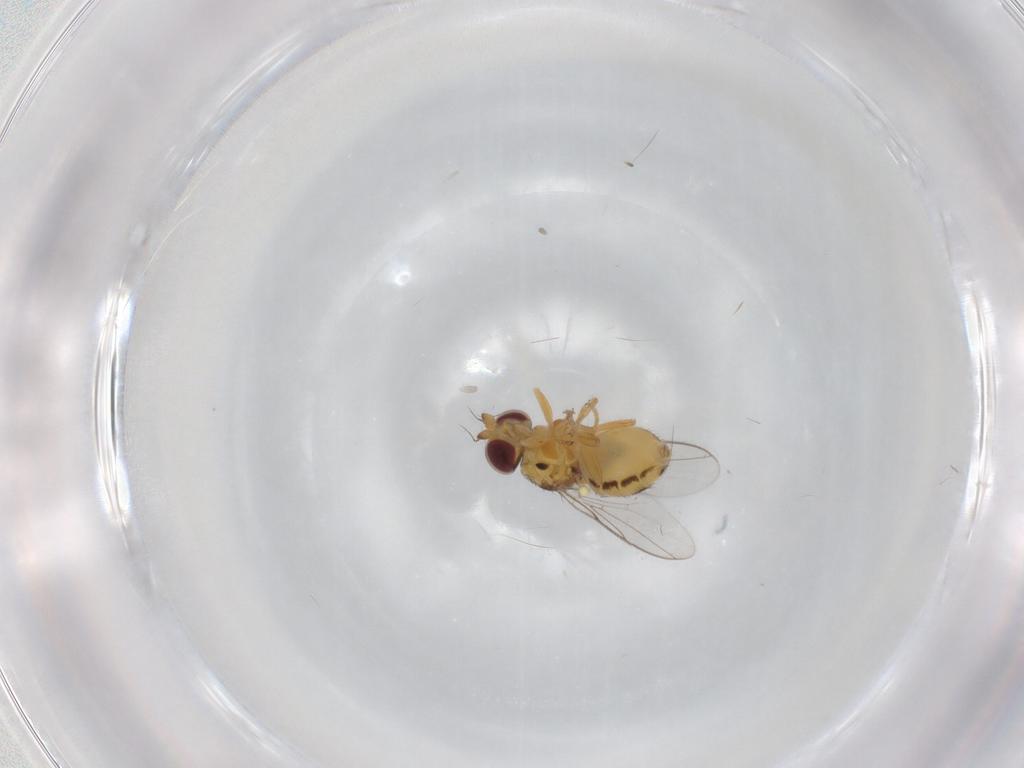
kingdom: Animalia
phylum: Arthropoda
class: Insecta
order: Diptera
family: Chloropidae
